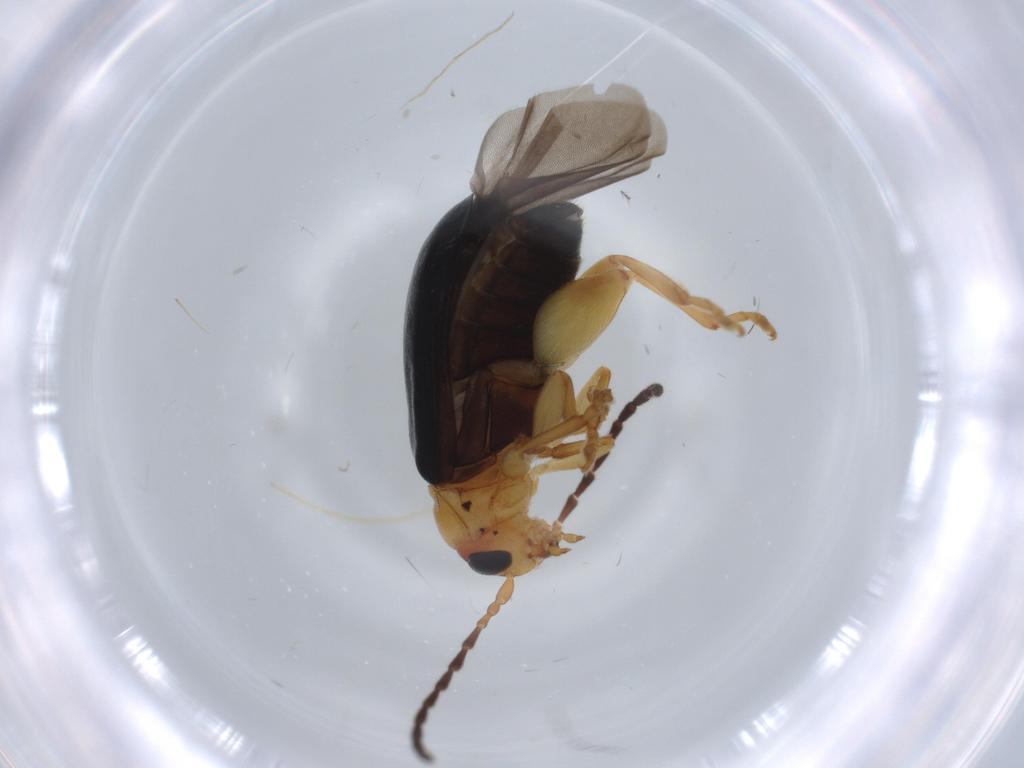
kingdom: Animalia
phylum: Arthropoda
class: Insecta
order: Coleoptera
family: Chrysomelidae
